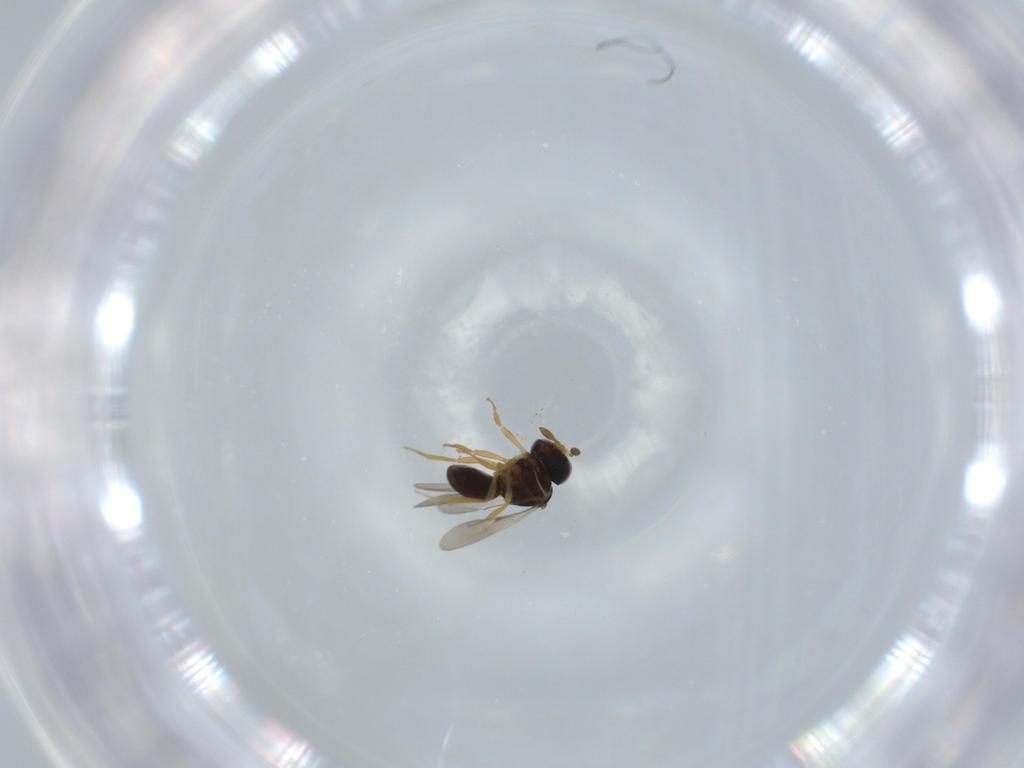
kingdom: Animalia
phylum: Arthropoda
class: Insecta
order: Hymenoptera
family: Scelionidae
